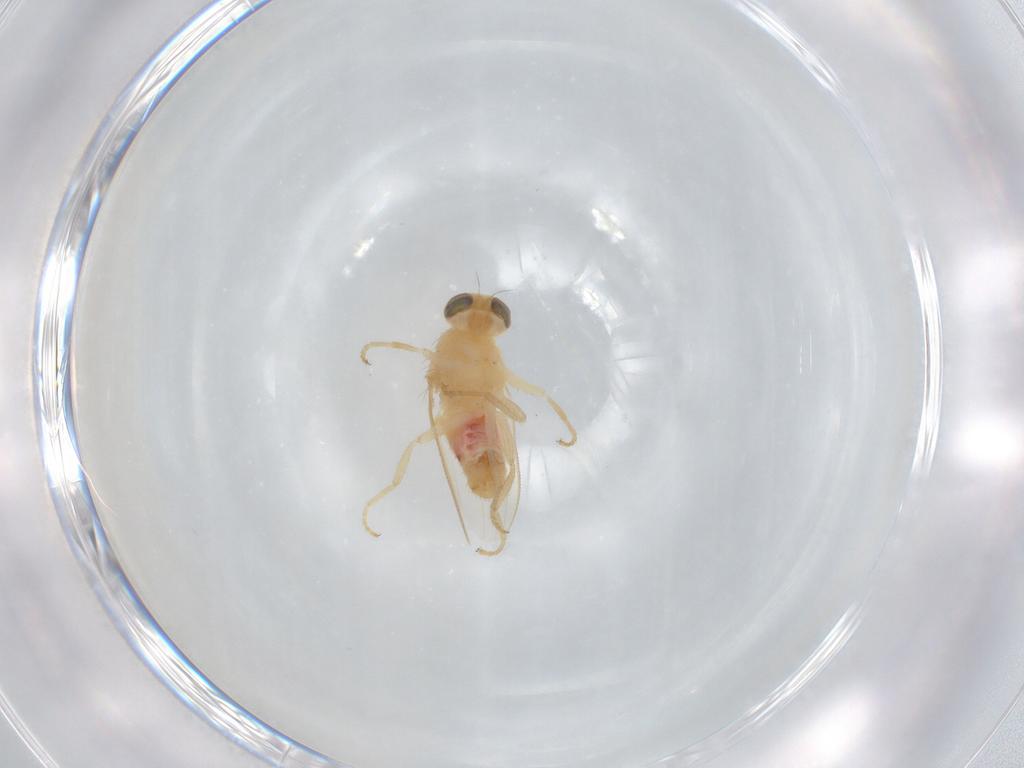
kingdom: Animalia
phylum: Arthropoda
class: Insecta
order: Diptera
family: Chyromyidae
